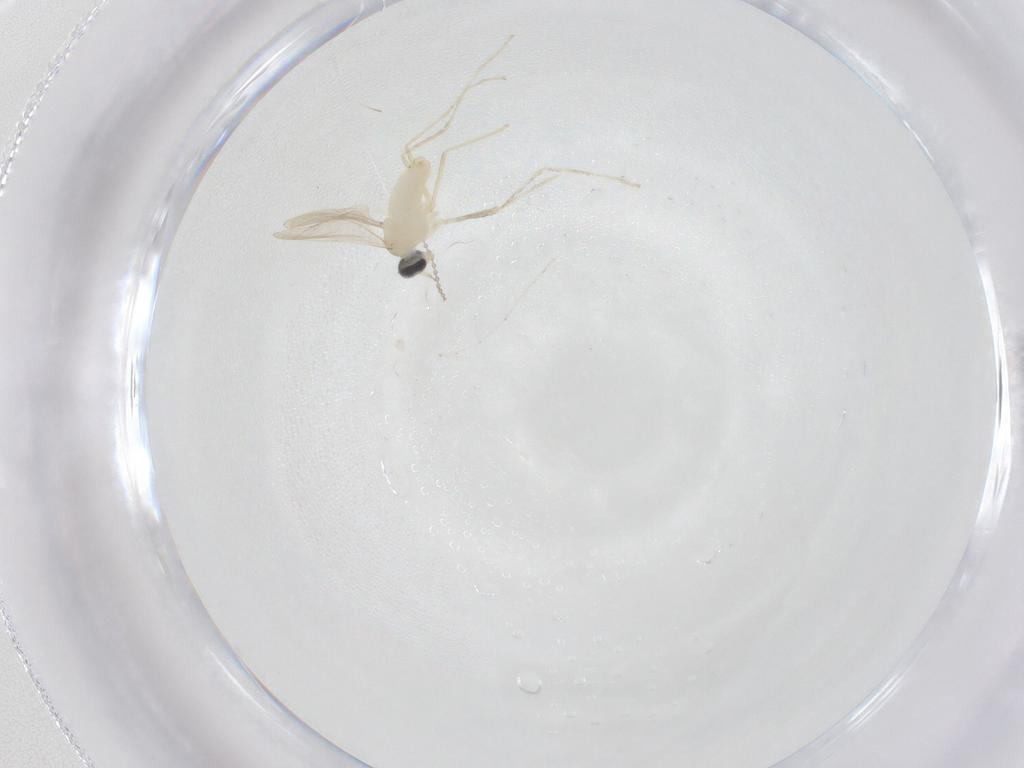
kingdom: Animalia
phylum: Arthropoda
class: Insecta
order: Diptera
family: Cecidomyiidae
